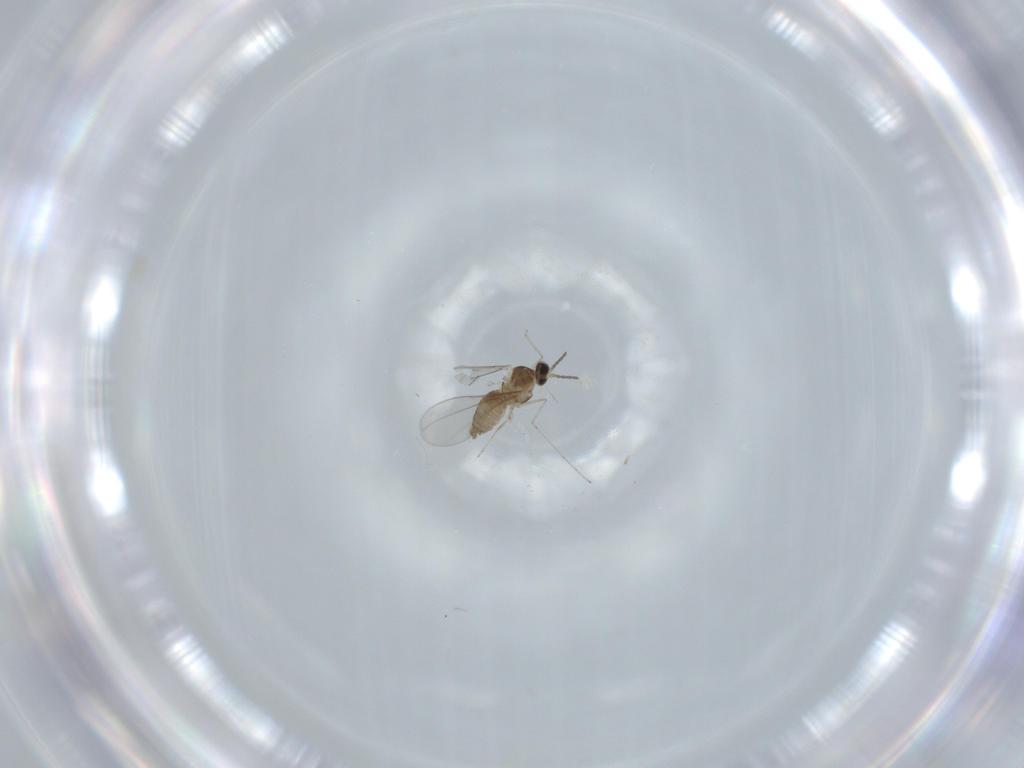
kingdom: Animalia
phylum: Arthropoda
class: Insecta
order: Diptera
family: Cecidomyiidae
